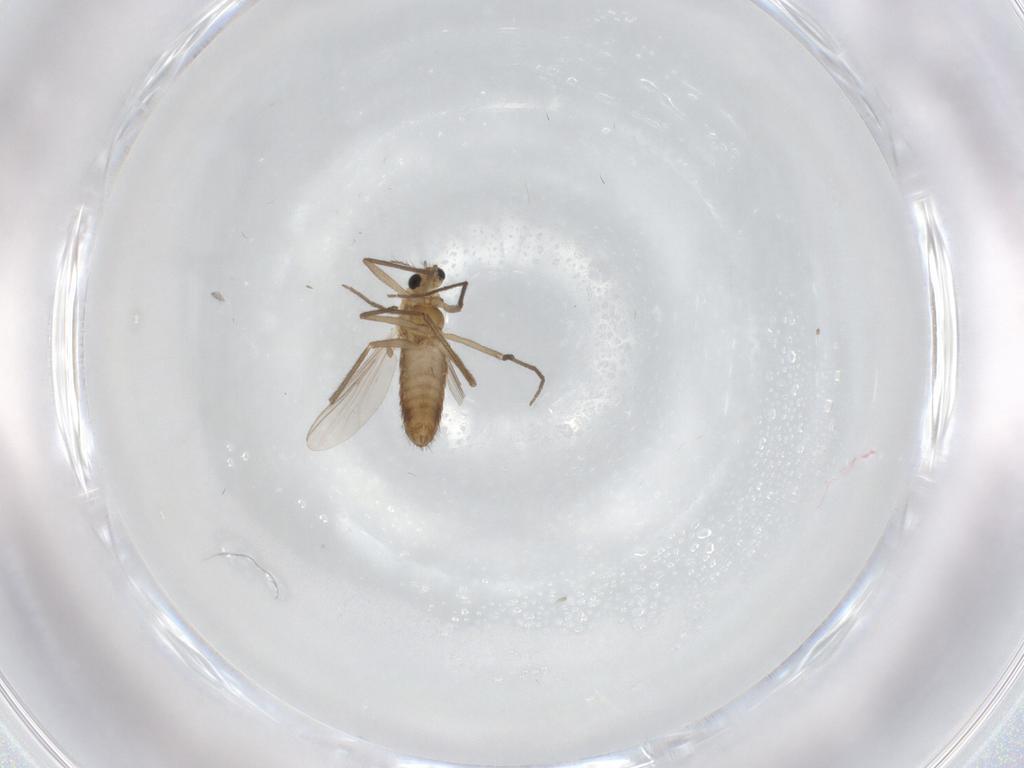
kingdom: Animalia
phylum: Arthropoda
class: Insecta
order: Diptera
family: Chironomidae
